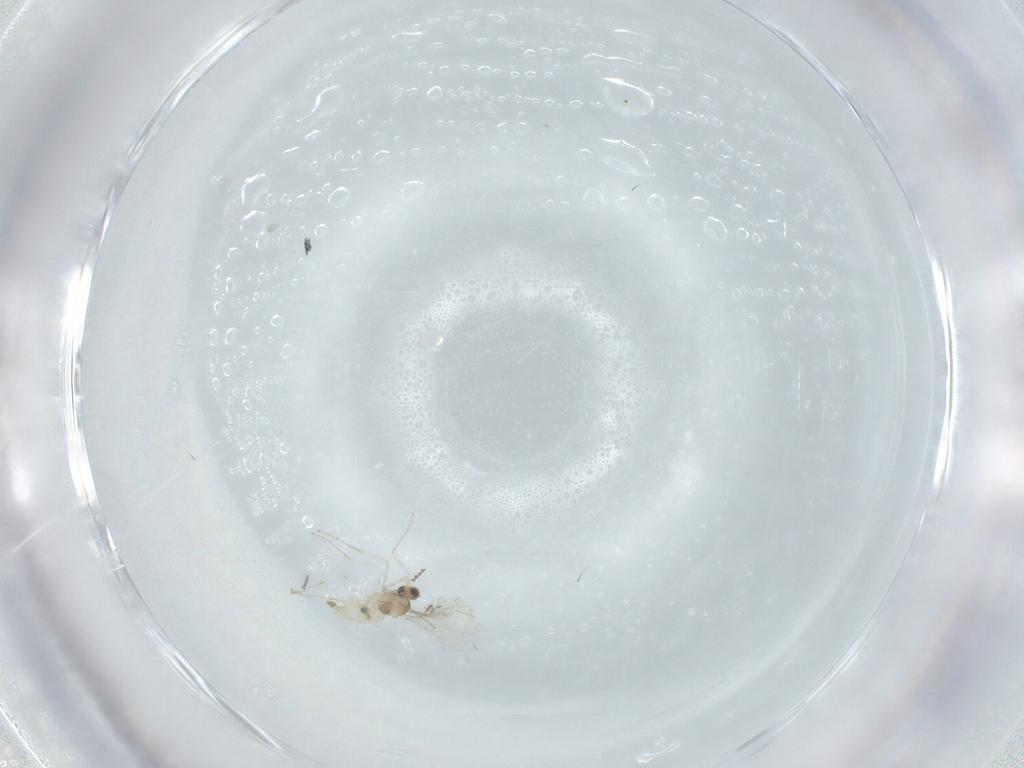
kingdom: Animalia
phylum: Arthropoda
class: Insecta
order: Diptera
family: Cecidomyiidae
